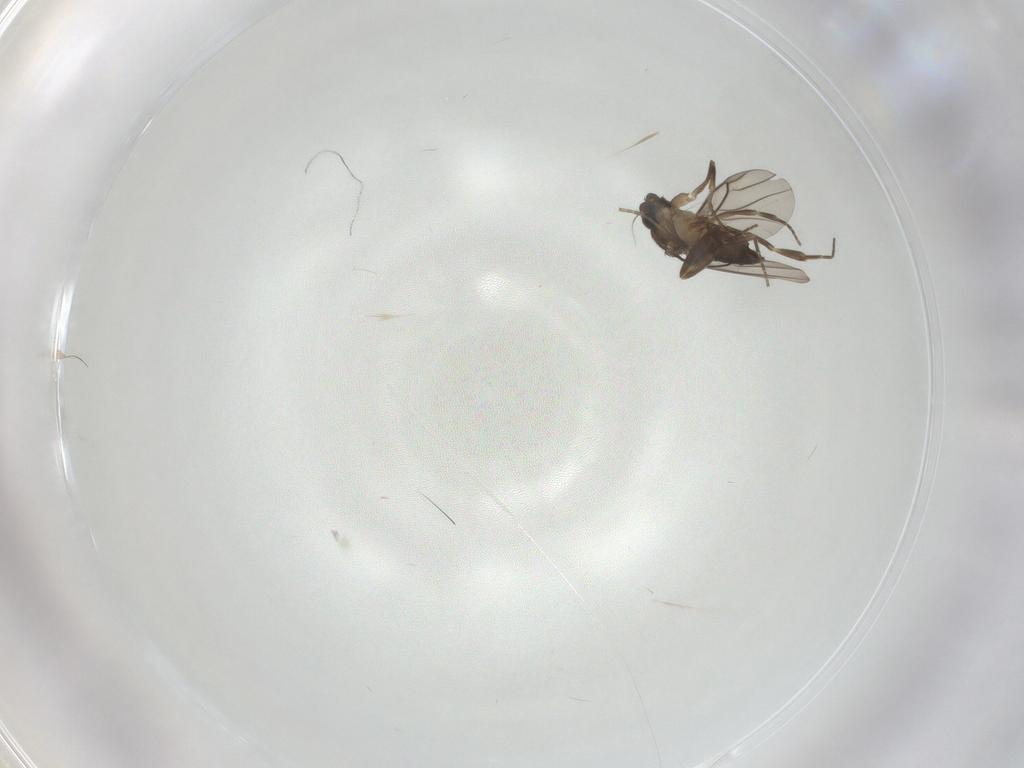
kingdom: Animalia
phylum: Arthropoda
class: Insecta
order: Diptera
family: Phoridae
